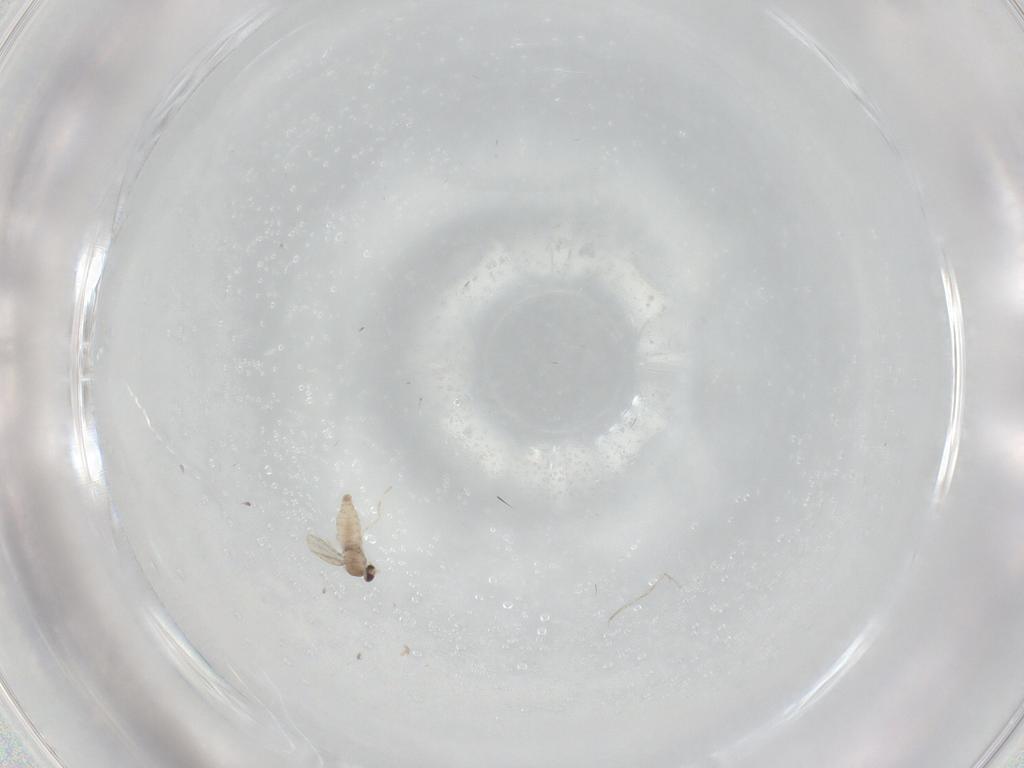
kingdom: Animalia
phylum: Arthropoda
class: Insecta
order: Diptera
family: Cecidomyiidae
